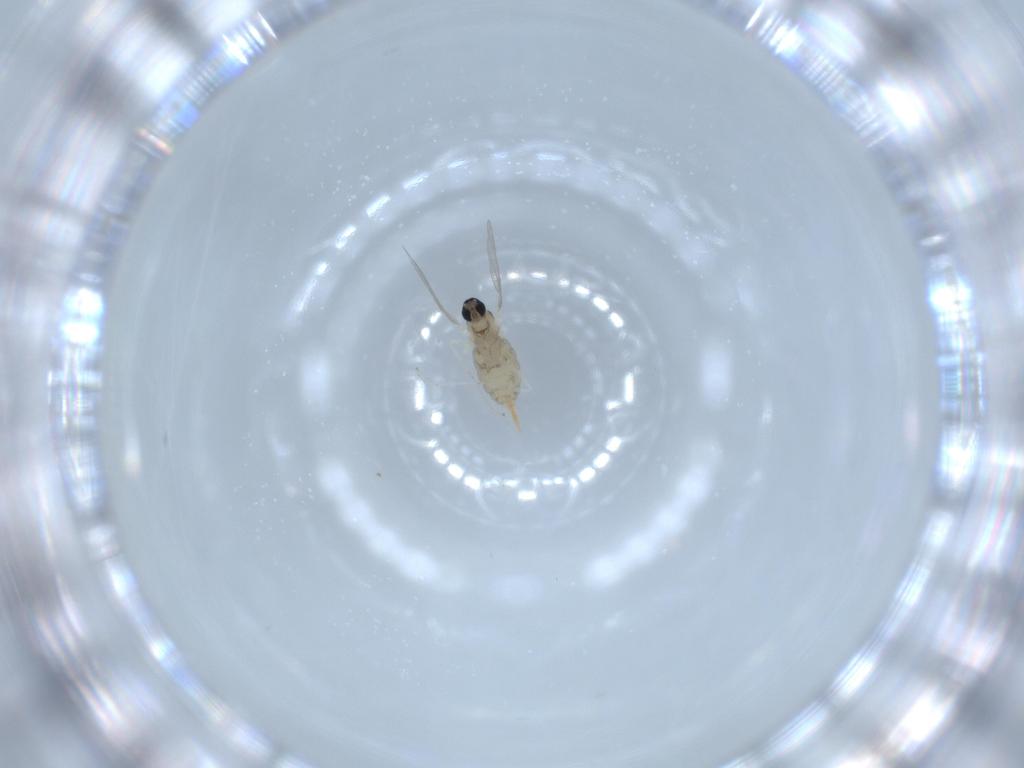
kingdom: Animalia
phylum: Arthropoda
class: Insecta
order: Diptera
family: Cecidomyiidae
